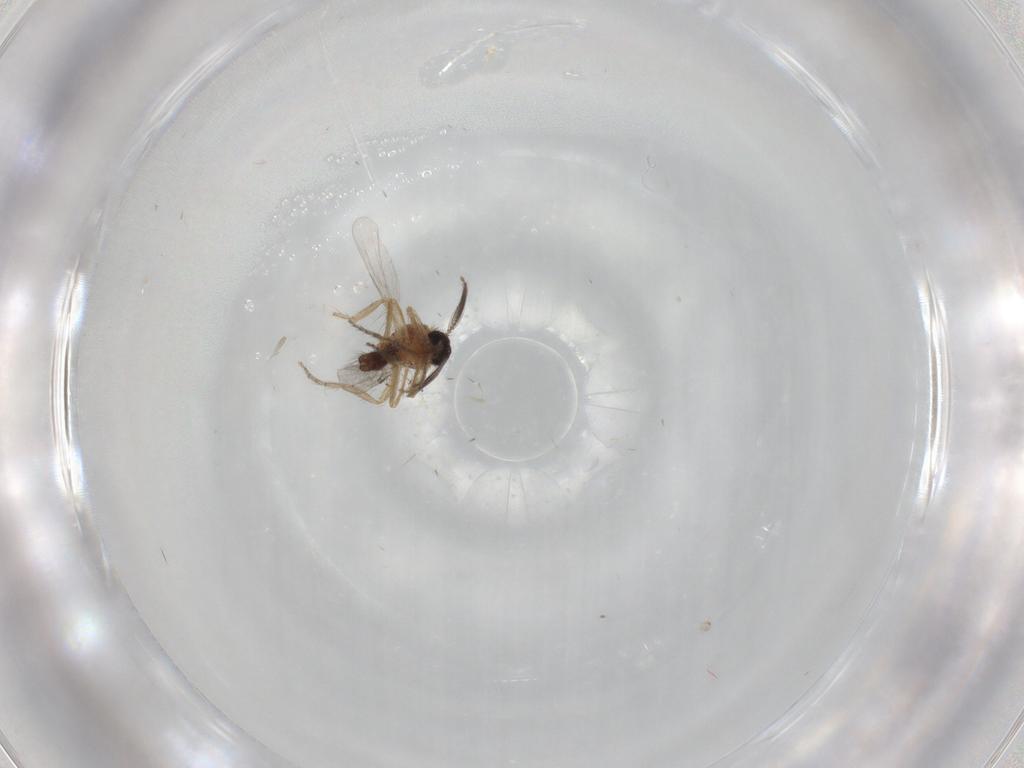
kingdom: Animalia
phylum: Arthropoda
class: Insecta
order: Diptera
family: Ceratopogonidae
